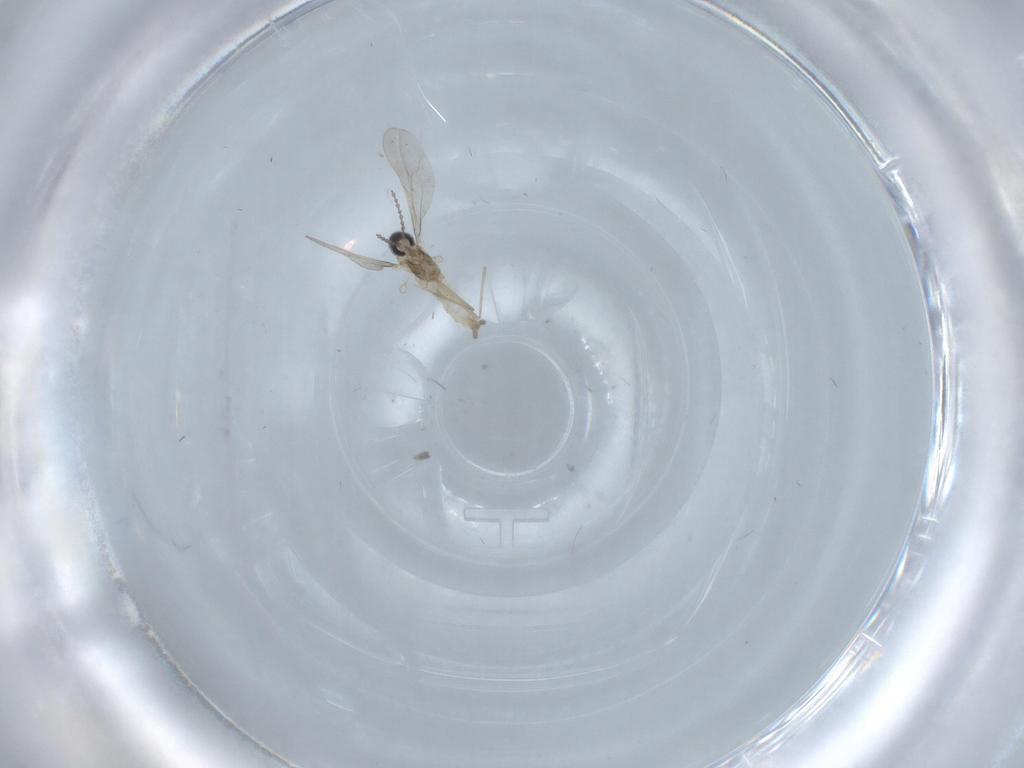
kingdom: Animalia
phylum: Arthropoda
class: Insecta
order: Diptera
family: Cecidomyiidae
